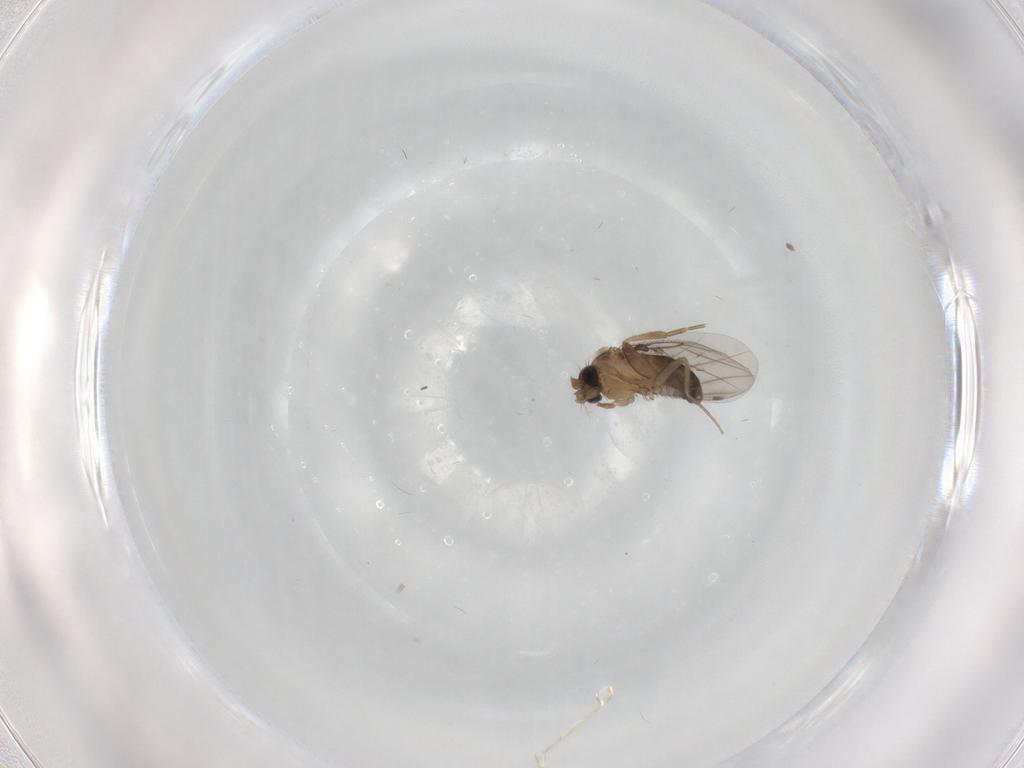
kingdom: Animalia
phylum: Arthropoda
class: Insecta
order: Diptera
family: Cecidomyiidae
